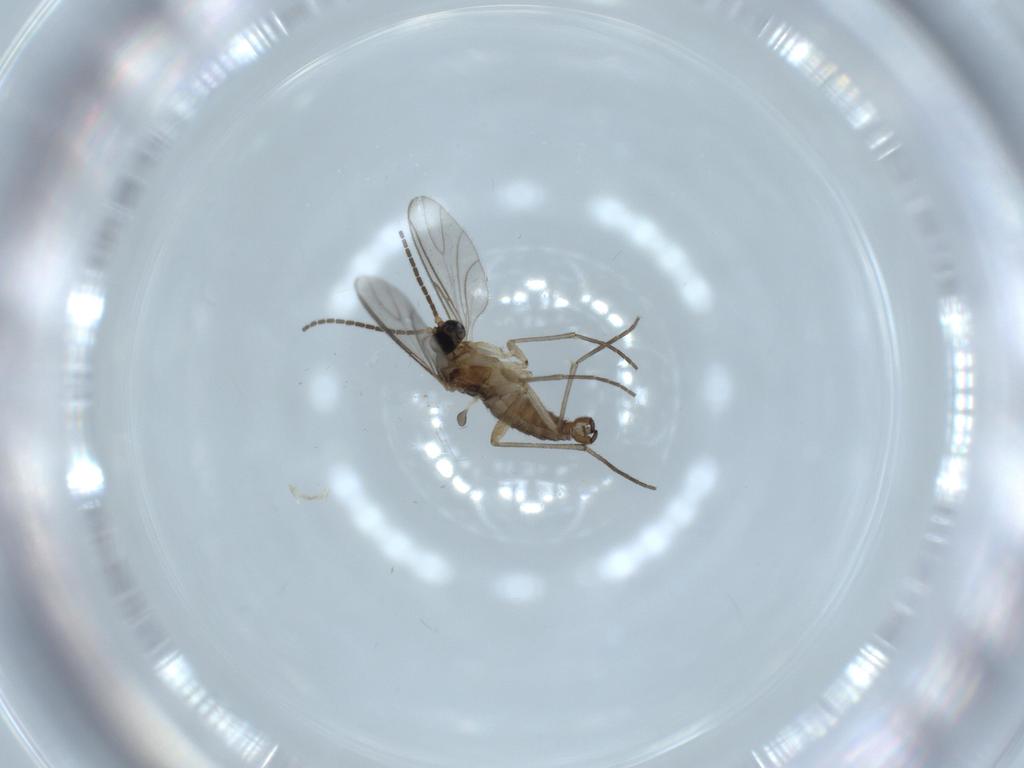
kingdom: Animalia
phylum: Arthropoda
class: Insecta
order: Diptera
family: Sciaridae
